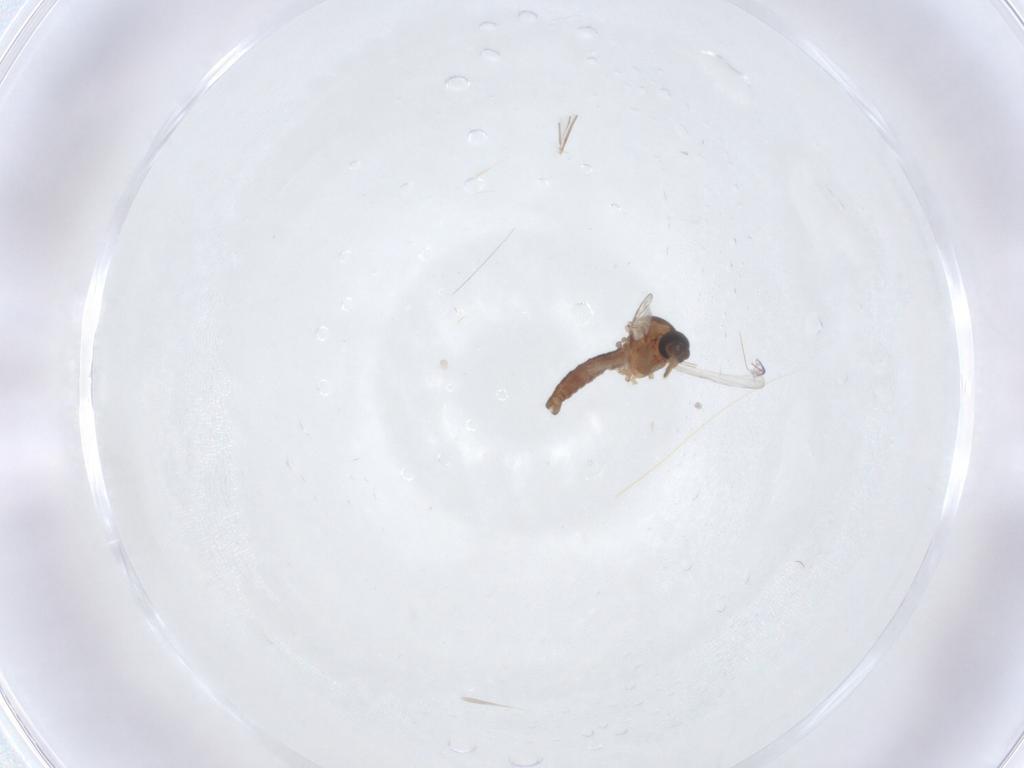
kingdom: Animalia
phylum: Arthropoda
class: Insecta
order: Diptera
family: Ceratopogonidae
